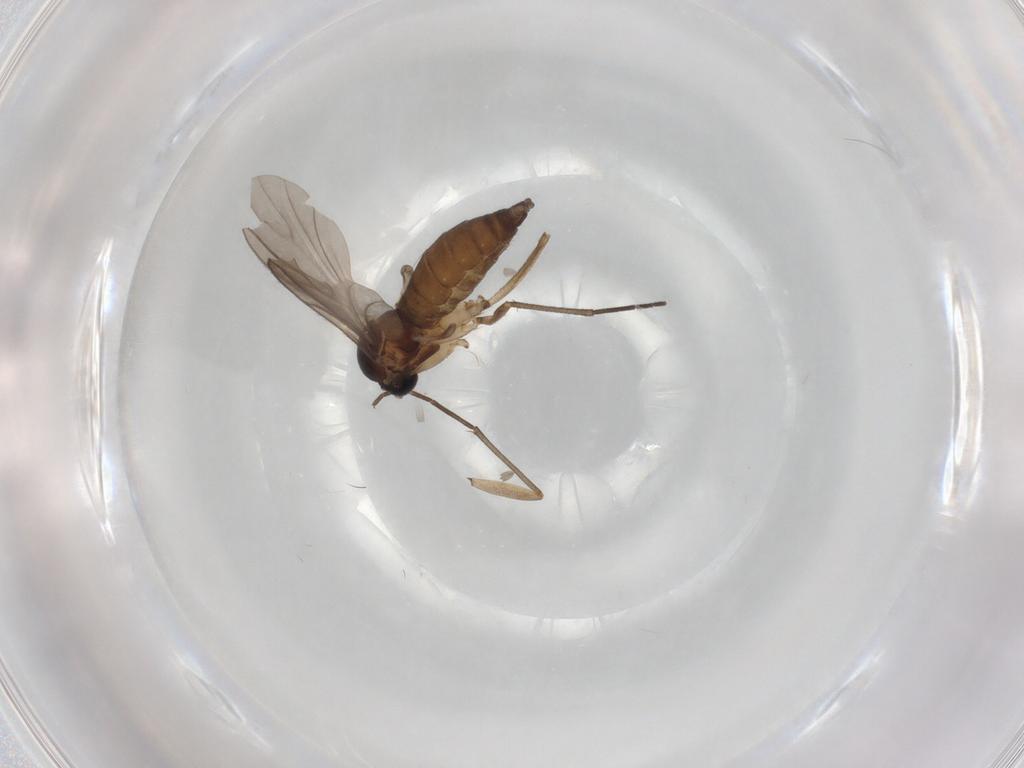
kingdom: Animalia
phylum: Arthropoda
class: Insecta
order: Diptera
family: Sciaridae
